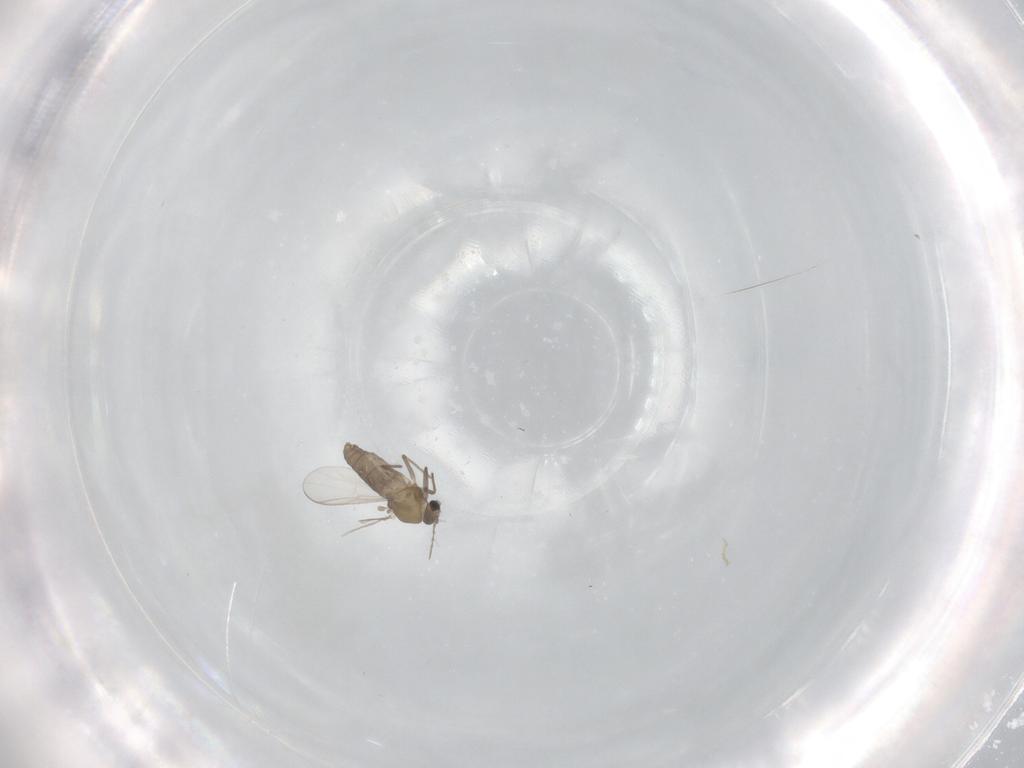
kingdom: Animalia
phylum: Arthropoda
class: Insecta
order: Diptera
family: Chironomidae
